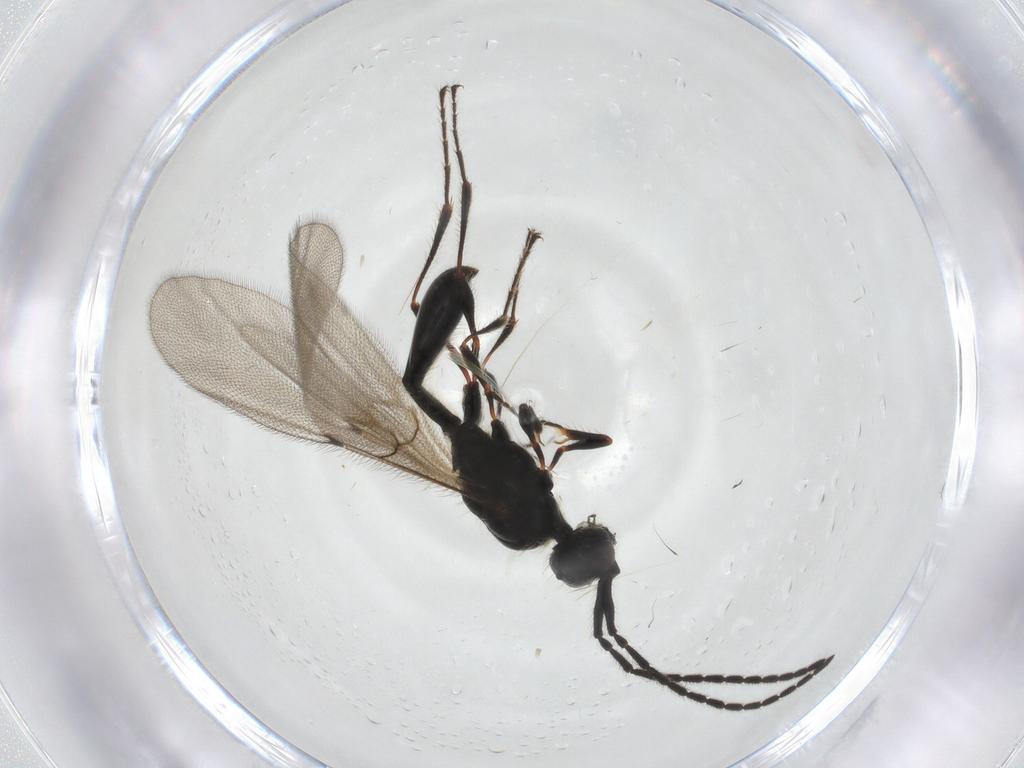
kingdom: Animalia
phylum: Arthropoda
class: Insecta
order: Hymenoptera
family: Diapriidae
